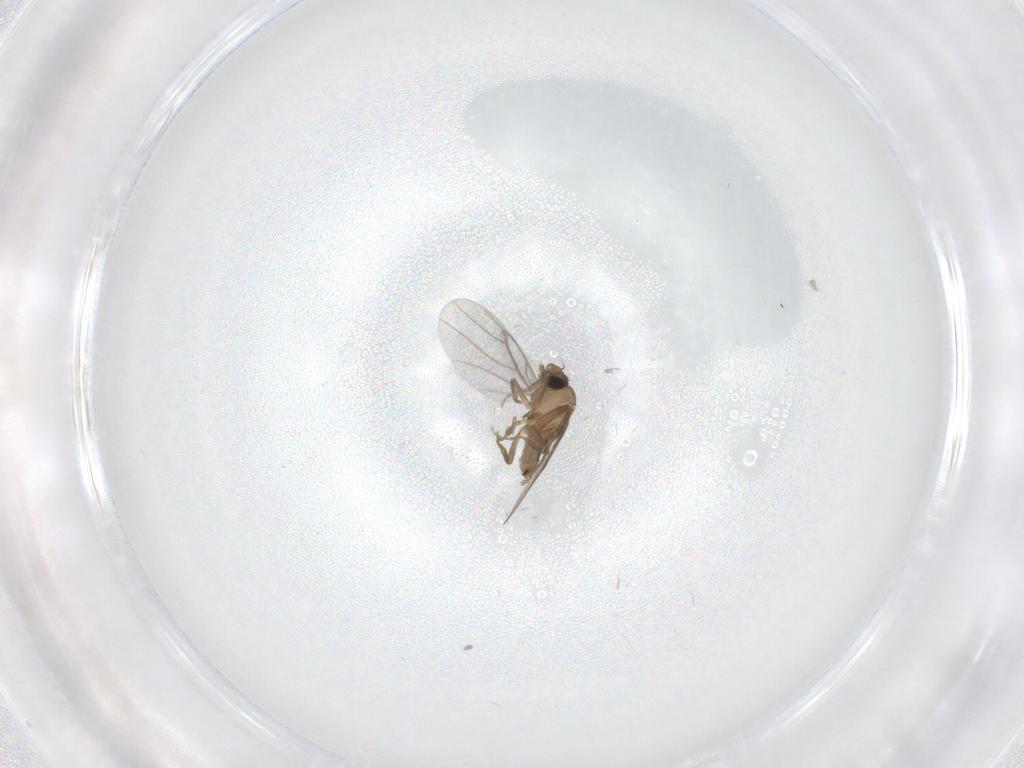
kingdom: Animalia
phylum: Arthropoda
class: Insecta
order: Diptera
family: Phoridae
